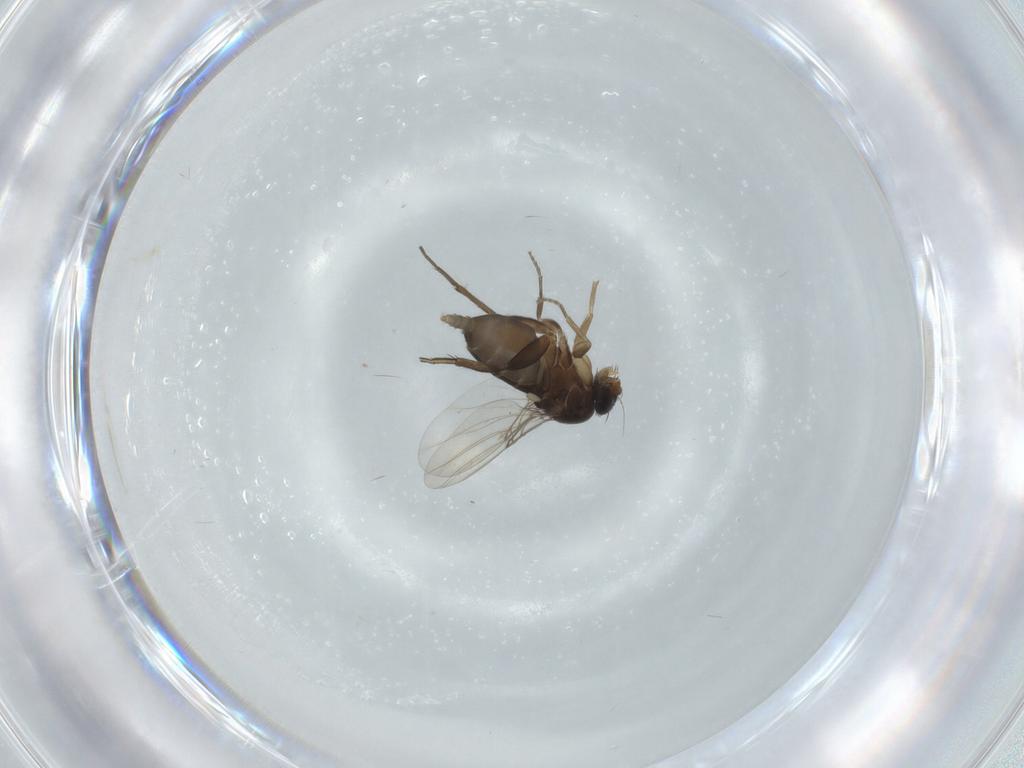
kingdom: Animalia
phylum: Arthropoda
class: Insecta
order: Diptera
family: Phoridae
